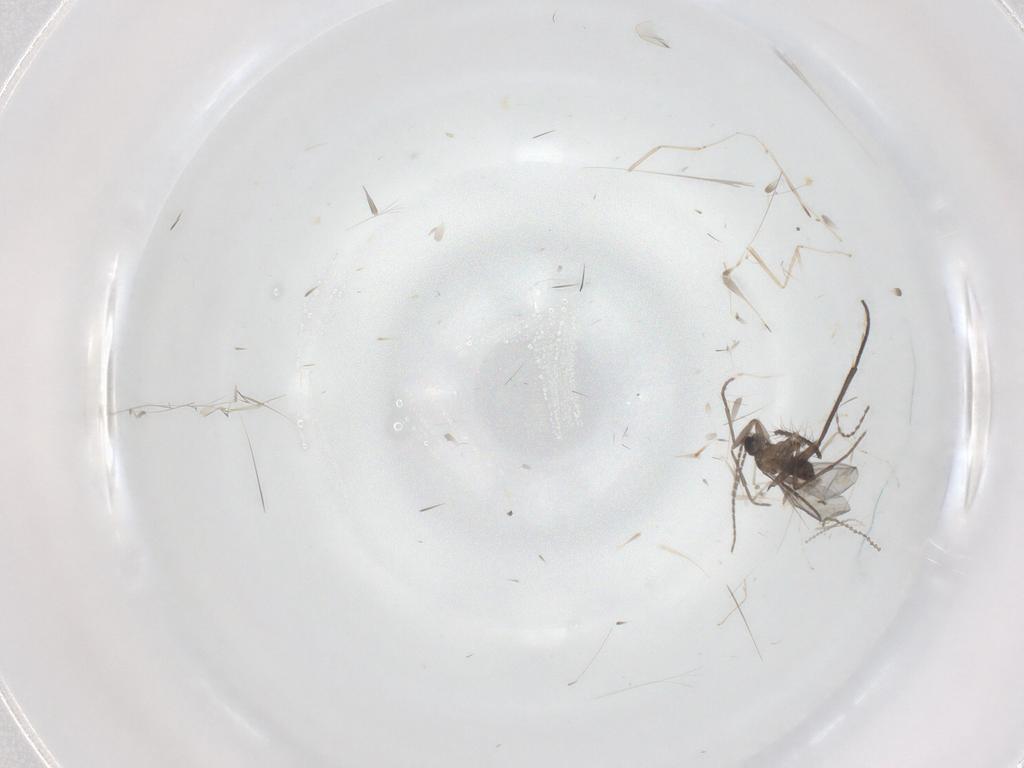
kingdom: Animalia
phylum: Arthropoda
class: Insecta
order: Diptera
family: Sciaridae
